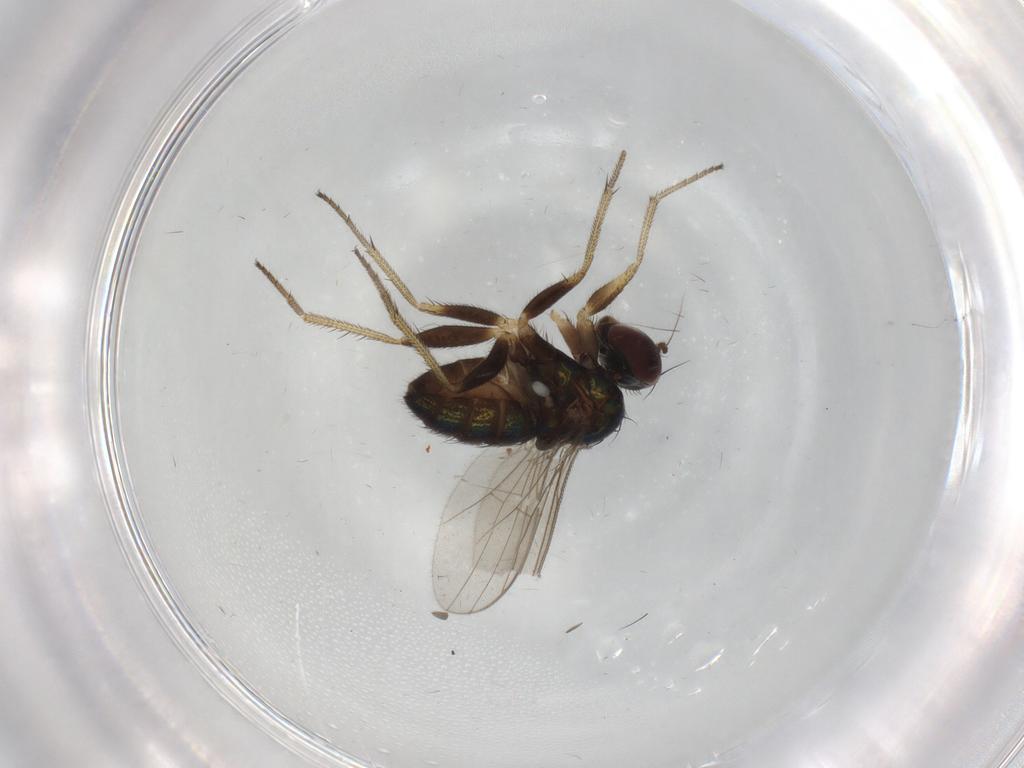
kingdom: Animalia
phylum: Arthropoda
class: Insecta
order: Diptera
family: Dolichopodidae
